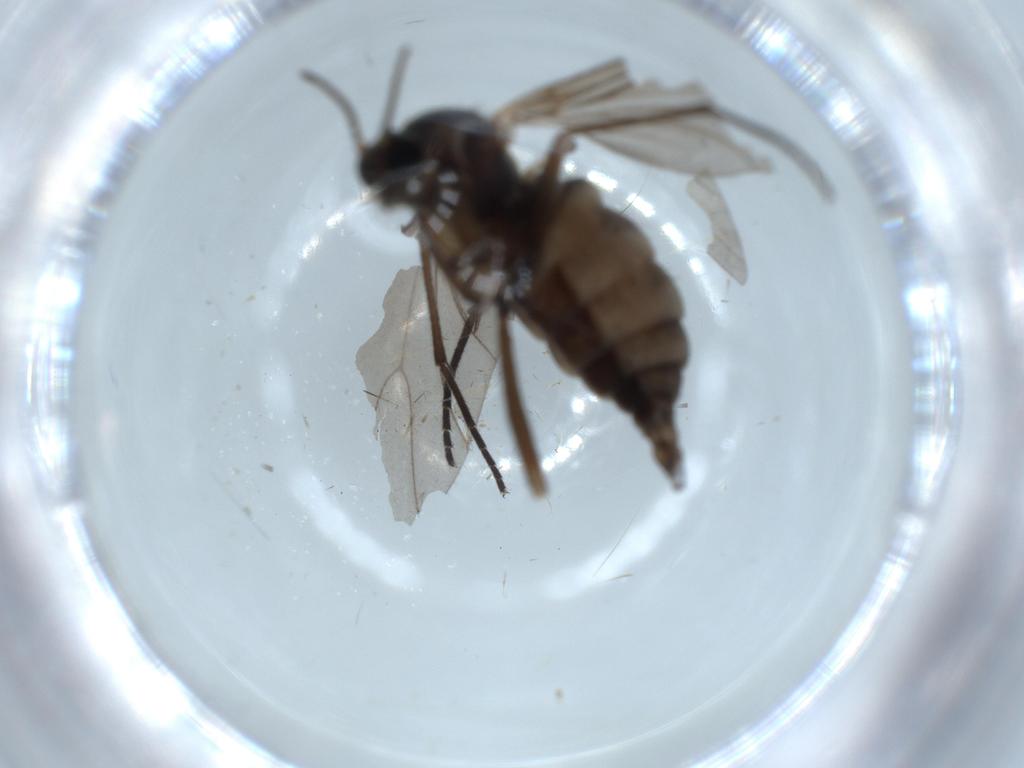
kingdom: Animalia
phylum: Arthropoda
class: Insecta
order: Diptera
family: Sciaridae
